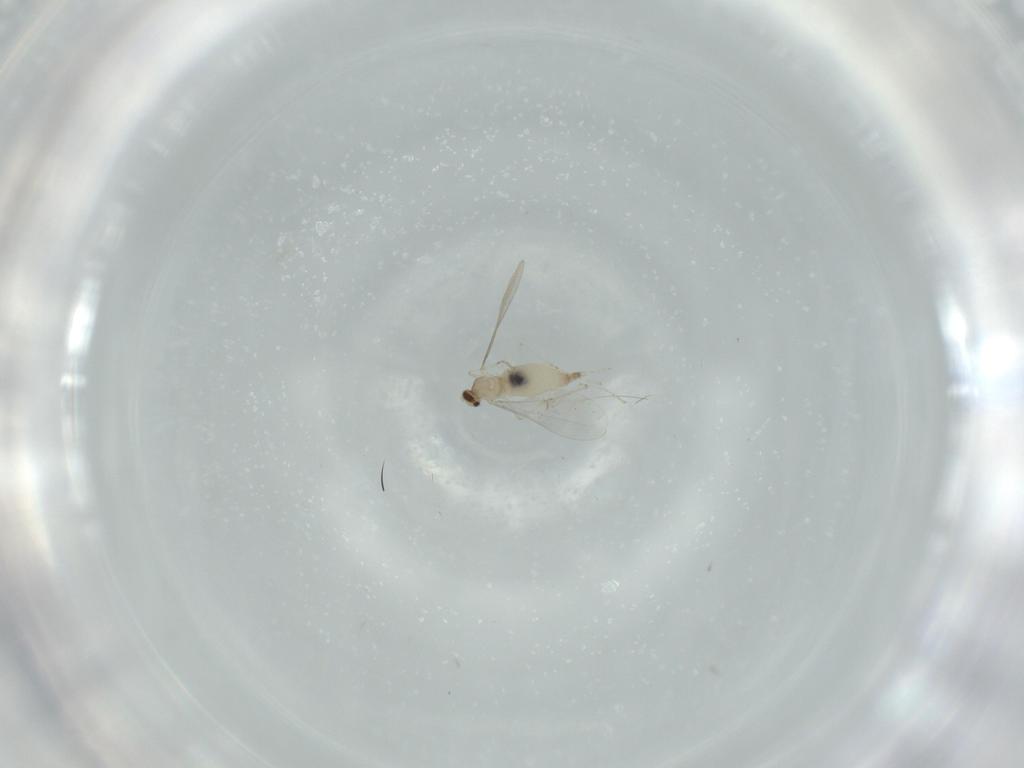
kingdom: Animalia
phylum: Arthropoda
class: Insecta
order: Diptera
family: Cecidomyiidae
